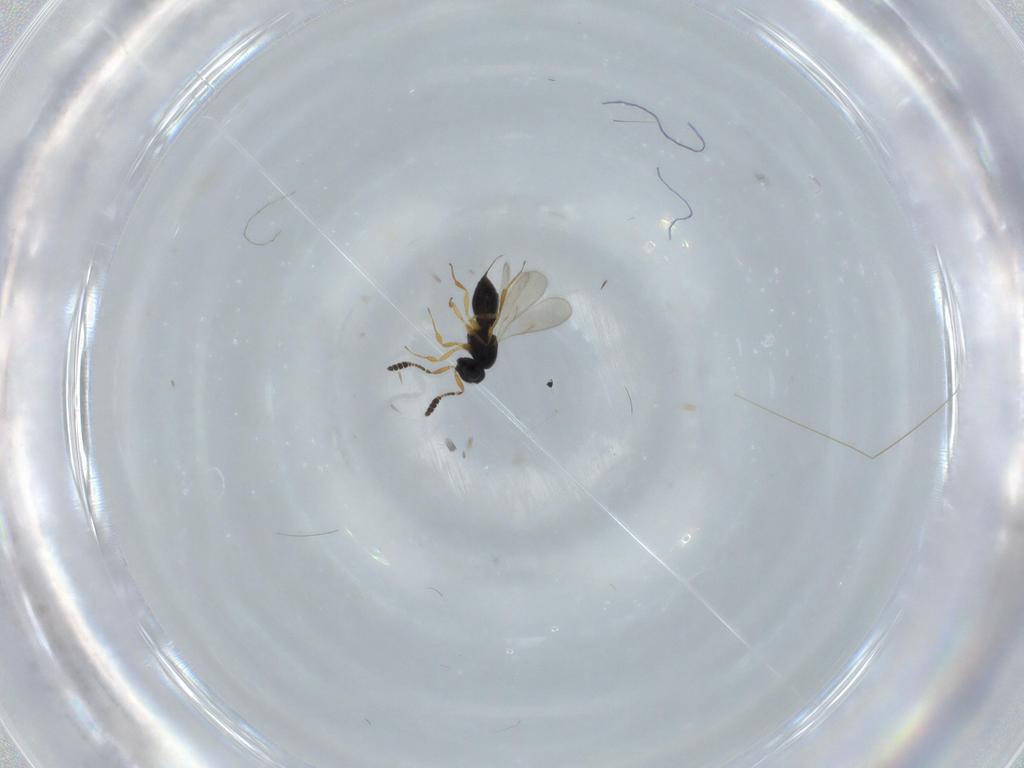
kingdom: Animalia
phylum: Arthropoda
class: Insecta
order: Hymenoptera
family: Scelionidae
